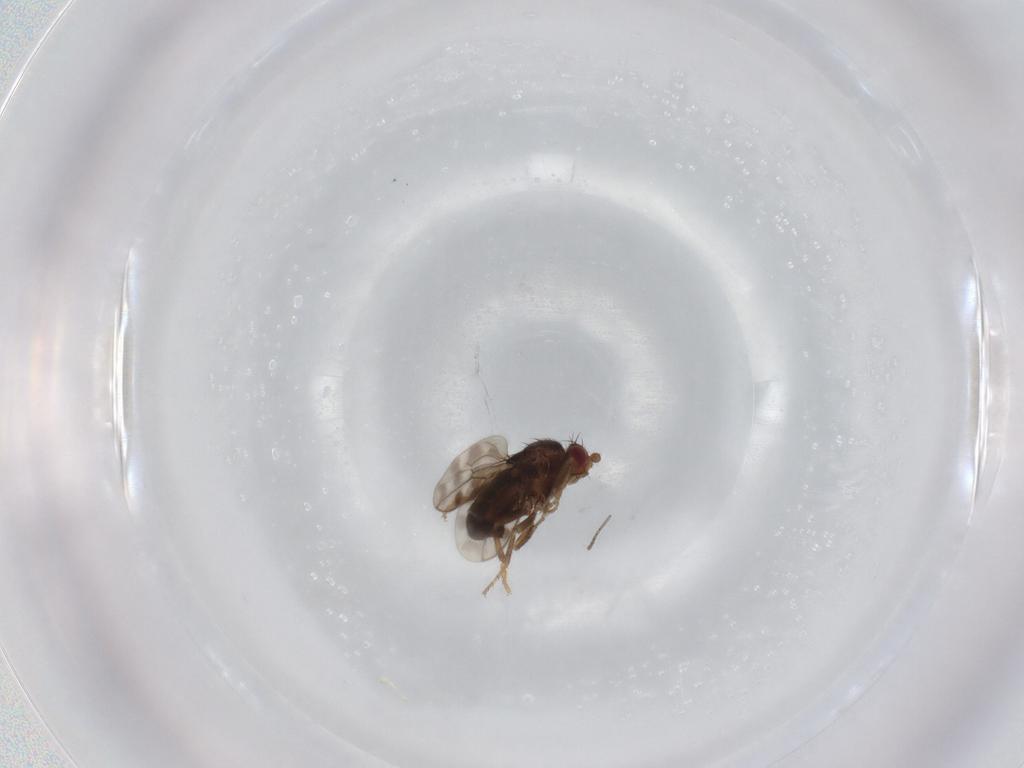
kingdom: Animalia
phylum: Arthropoda
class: Insecta
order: Diptera
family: Sphaeroceridae
